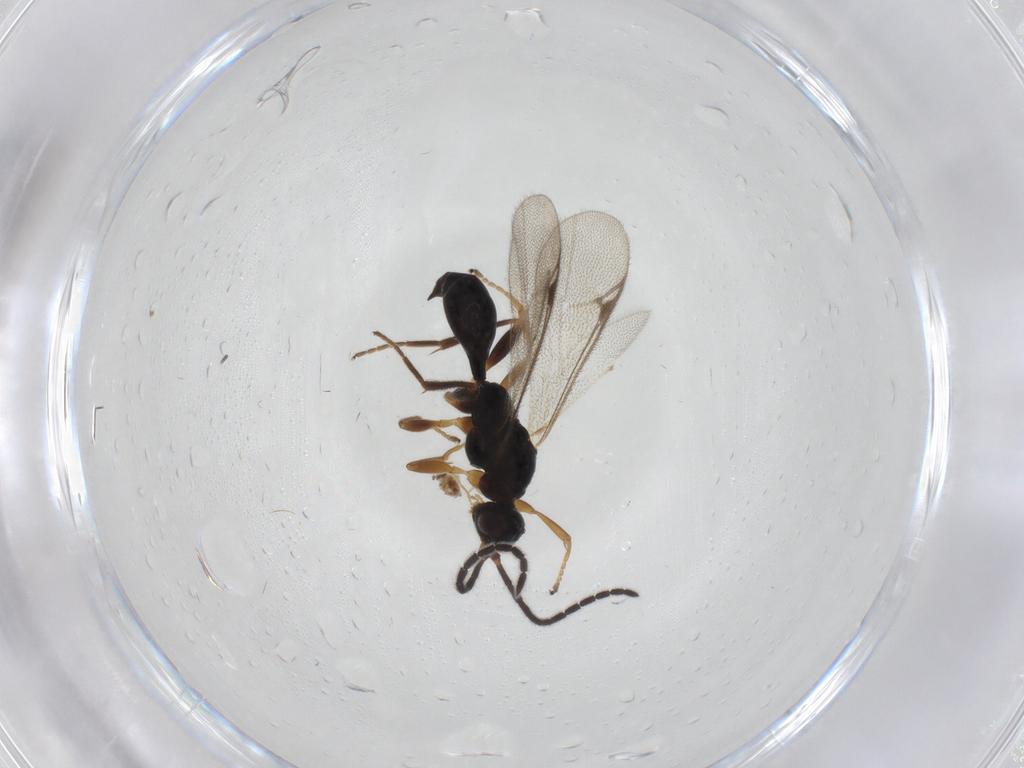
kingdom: Animalia
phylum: Arthropoda
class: Insecta
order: Hymenoptera
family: Proctotrupidae
